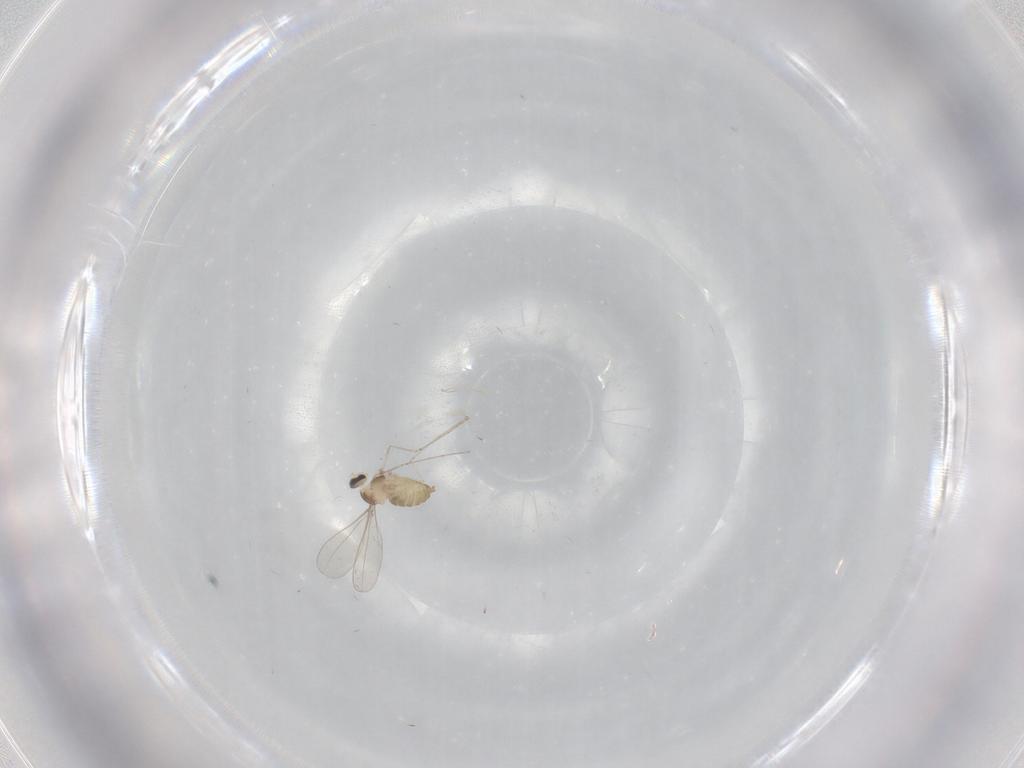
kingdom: Animalia
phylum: Arthropoda
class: Insecta
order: Diptera
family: Cecidomyiidae
